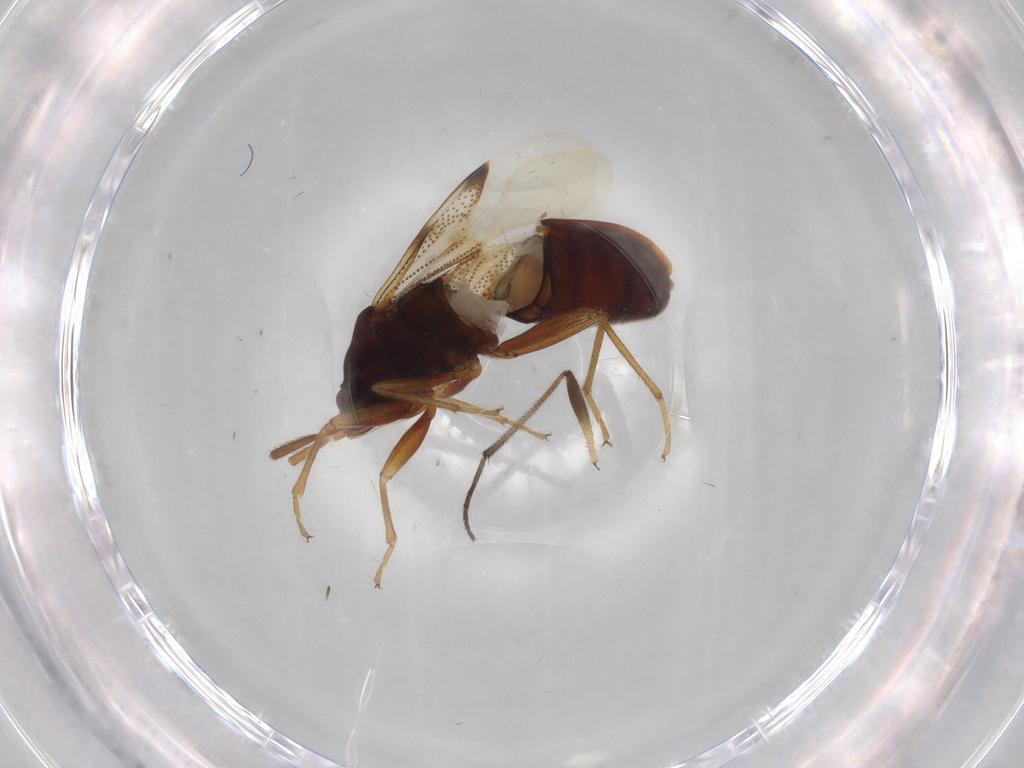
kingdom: Animalia
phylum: Arthropoda
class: Insecta
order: Hemiptera
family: Rhyparochromidae
